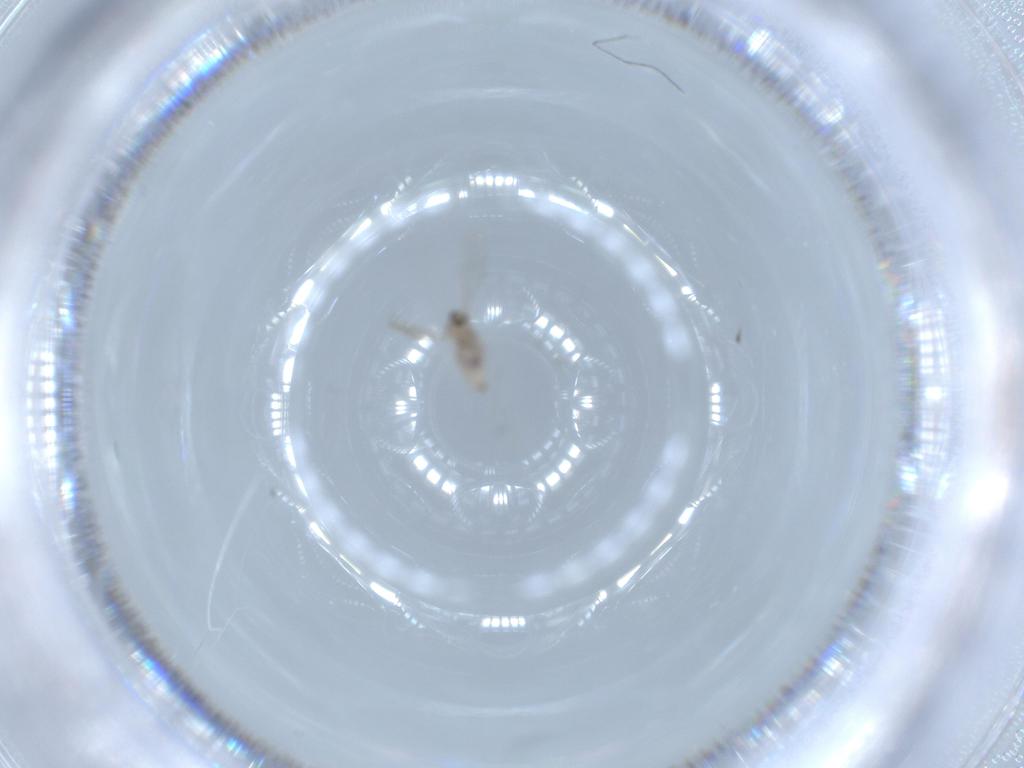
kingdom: Animalia
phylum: Arthropoda
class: Insecta
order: Diptera
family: Cecidomyiidae
